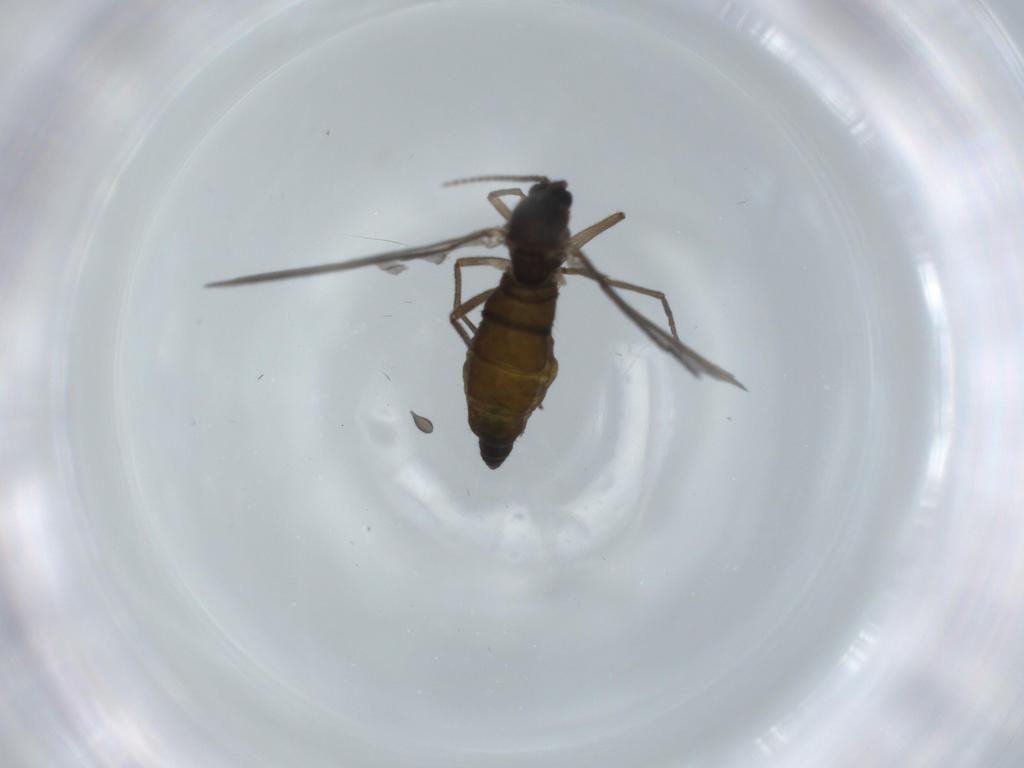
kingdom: Animalia
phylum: Arthropoda
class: Insecta
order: Diptera
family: Sciaridae
